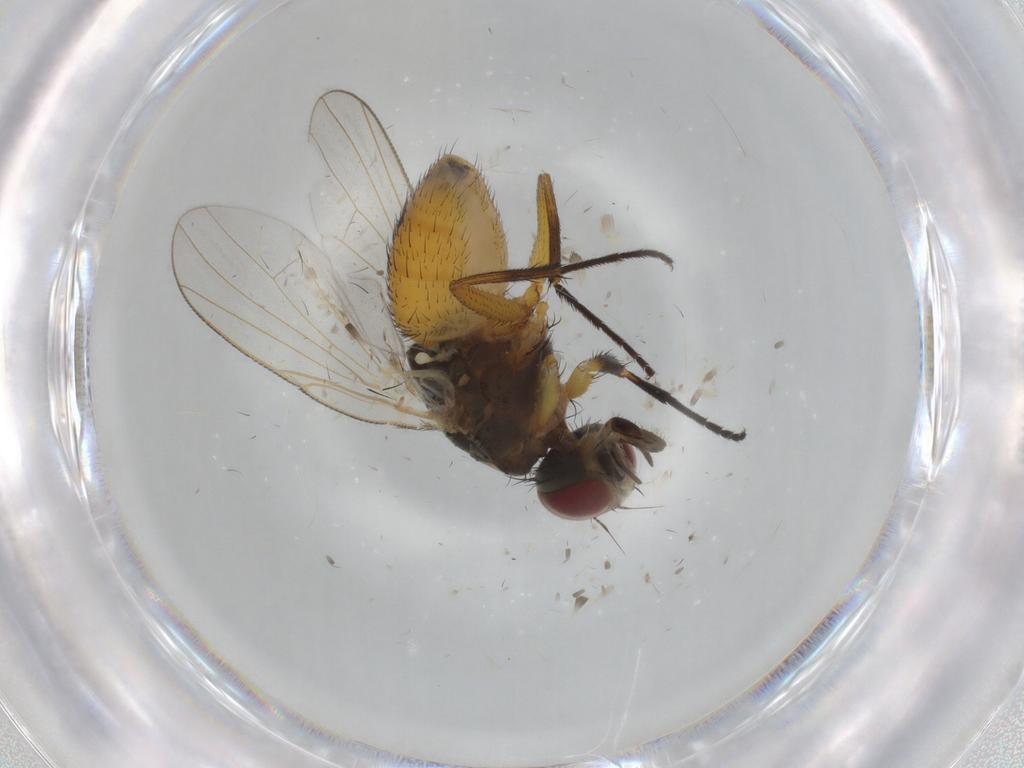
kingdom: Animalia
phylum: Arthropoda
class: Insecta
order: Diptera
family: Muscidae
